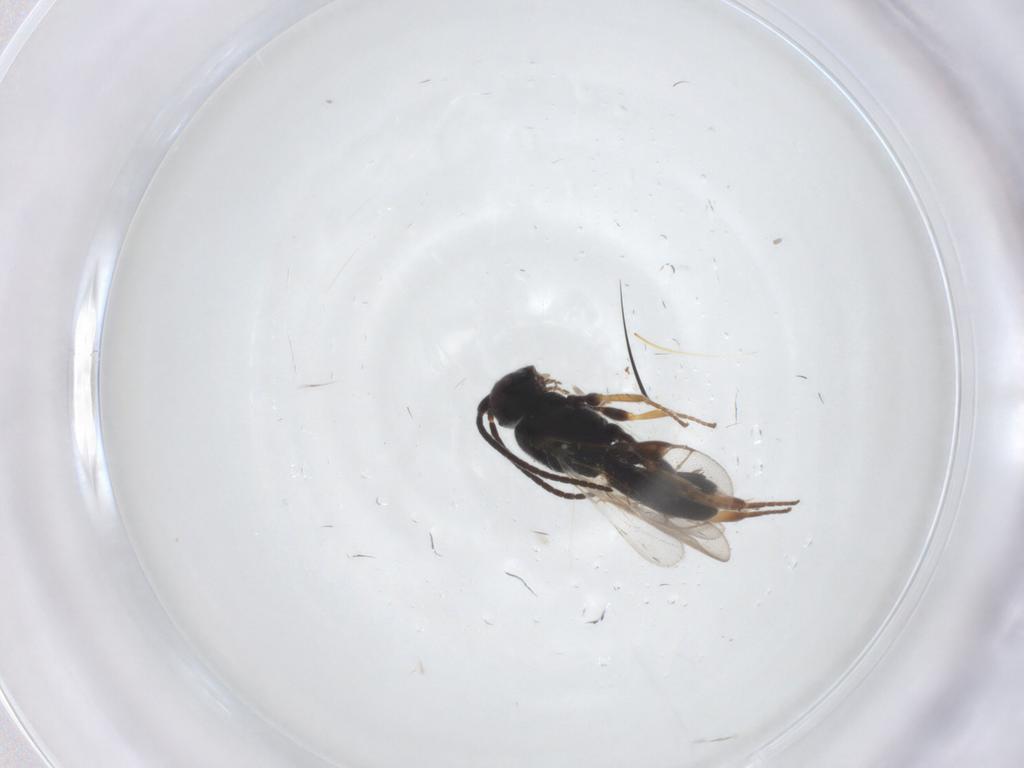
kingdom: Animalia
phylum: Arthropoda
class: Insecta
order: Hymenoptera
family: Braconidae
